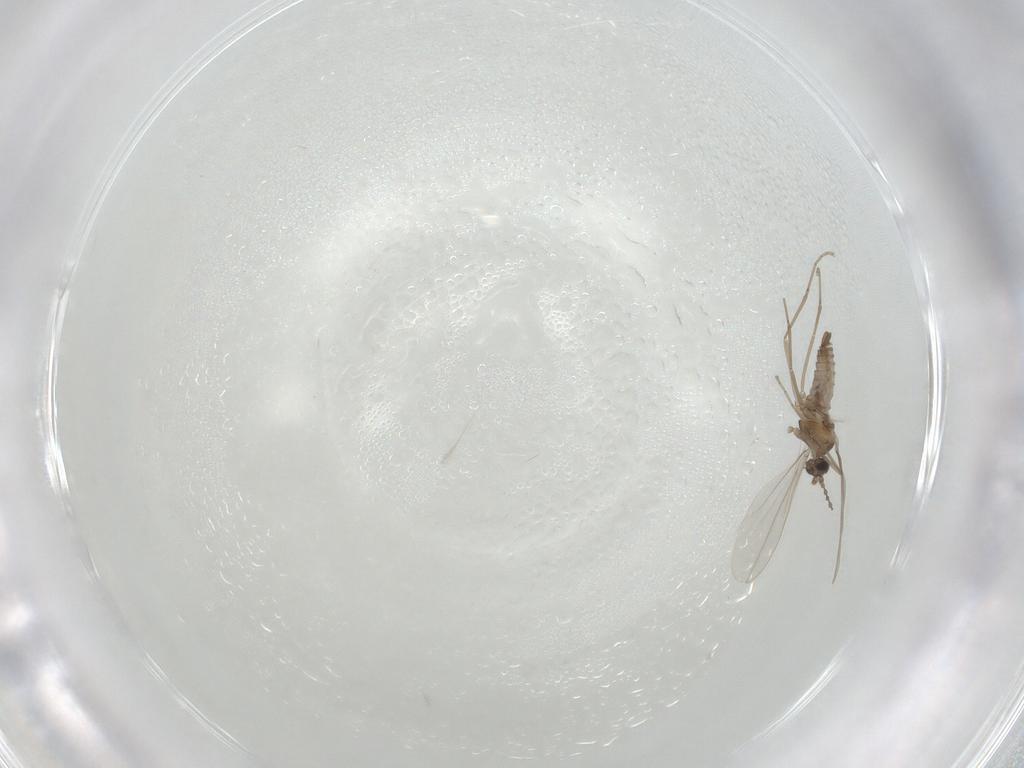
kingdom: Animalia
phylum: Arthropoda
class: Insecta
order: Diptera
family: Mycetophilidae
